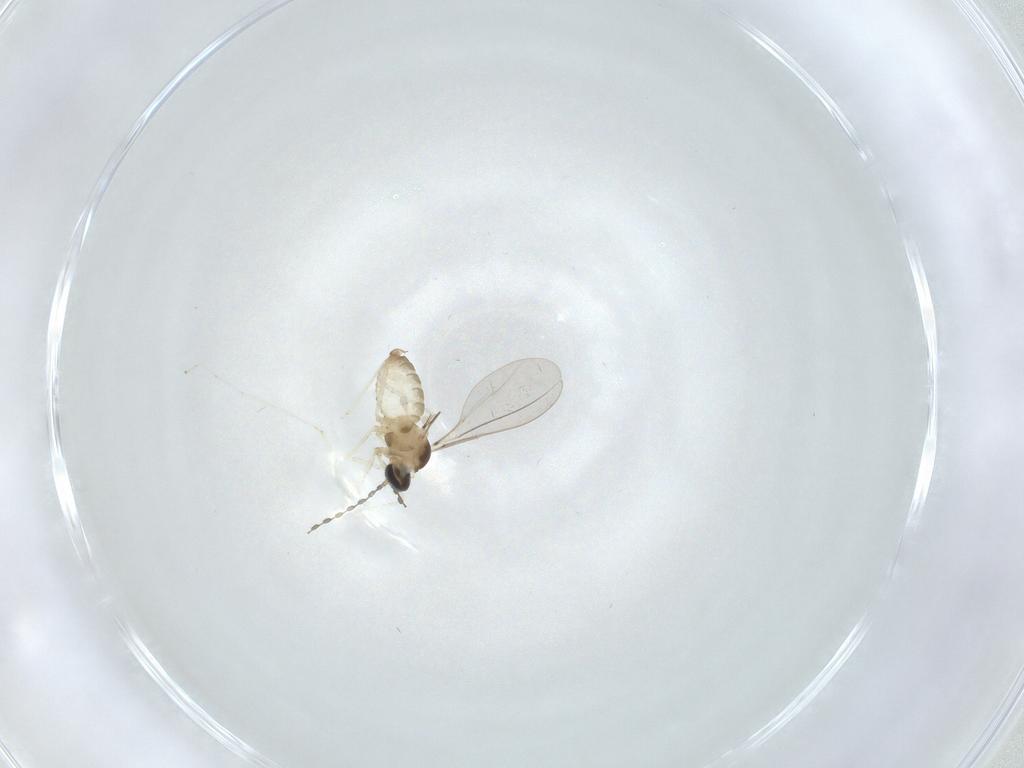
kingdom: Animalia
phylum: Arthropoda
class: Insecta
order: Diptera
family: Cecidomyiidae
